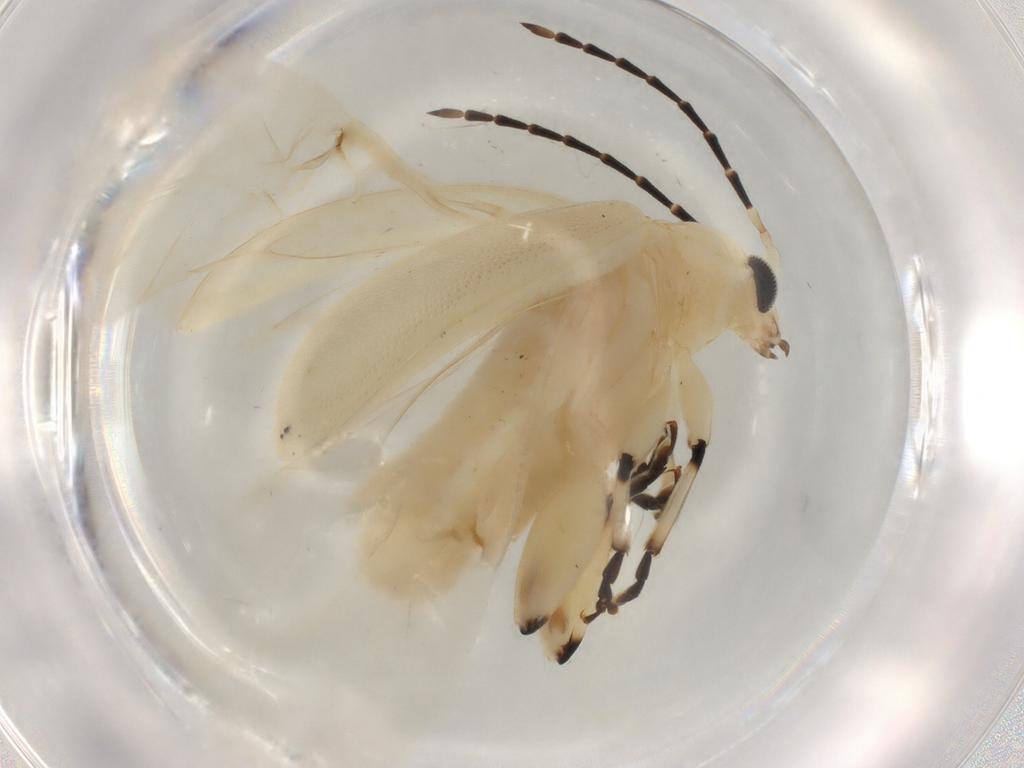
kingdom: Animalia
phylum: Arthropoda
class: Insecta
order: Coleoptera
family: Chrysomelidae
